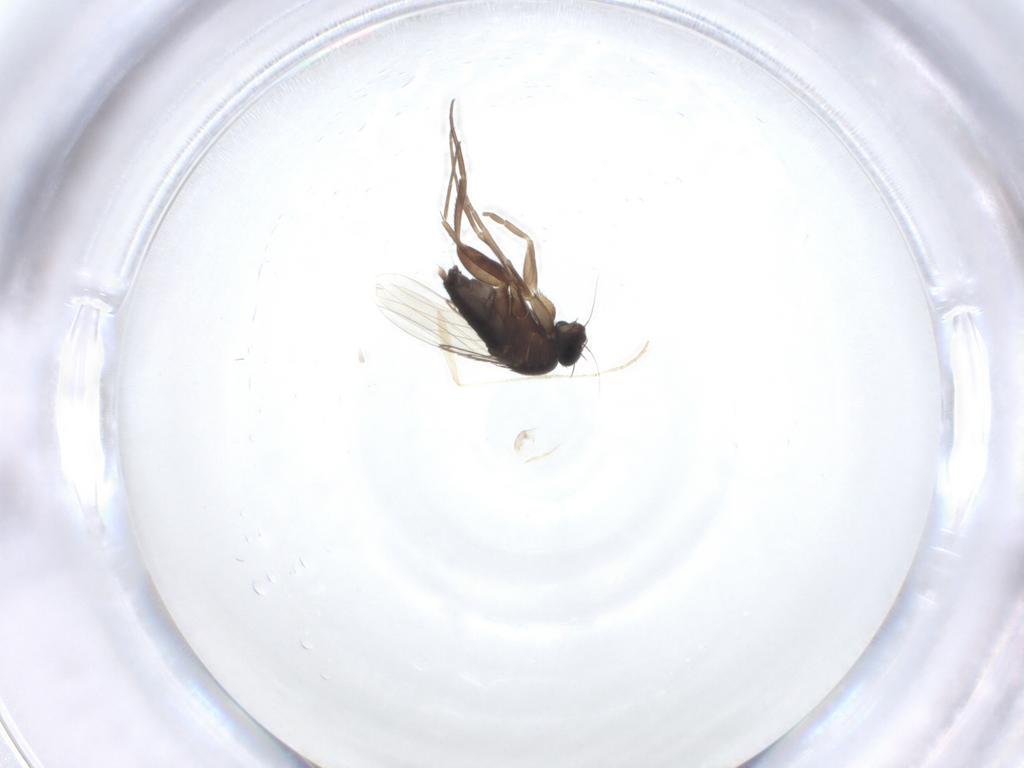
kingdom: Animalia
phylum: Arthropoda
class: Insecta
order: Diptera
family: Phoridae
